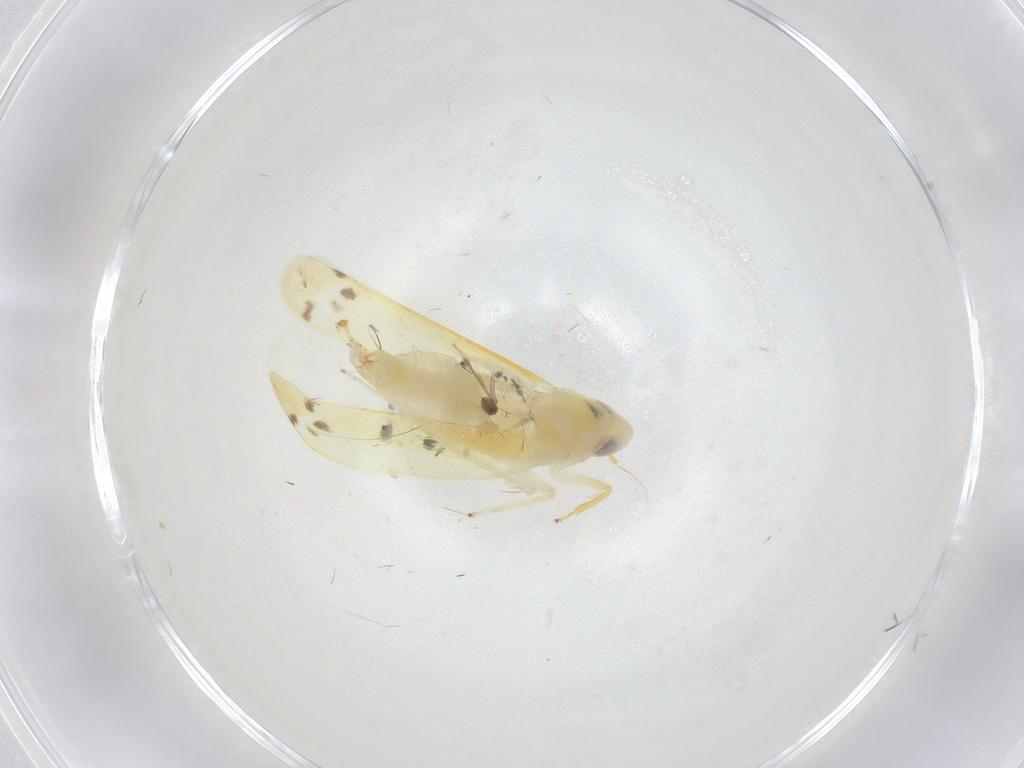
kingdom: Animalia
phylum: Arthropoda
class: Insecta
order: Hemiptera
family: Cicadellidae
